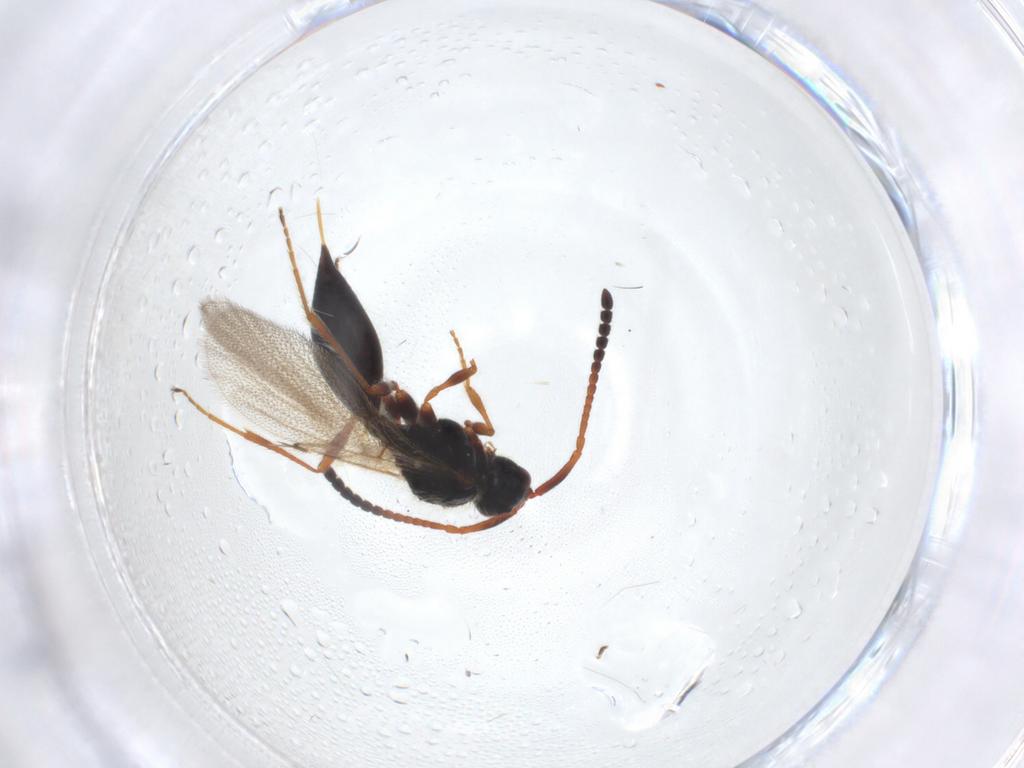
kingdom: Animalia
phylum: Arthropoda
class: Insecta
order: Hymenoptera
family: Diapriidae
